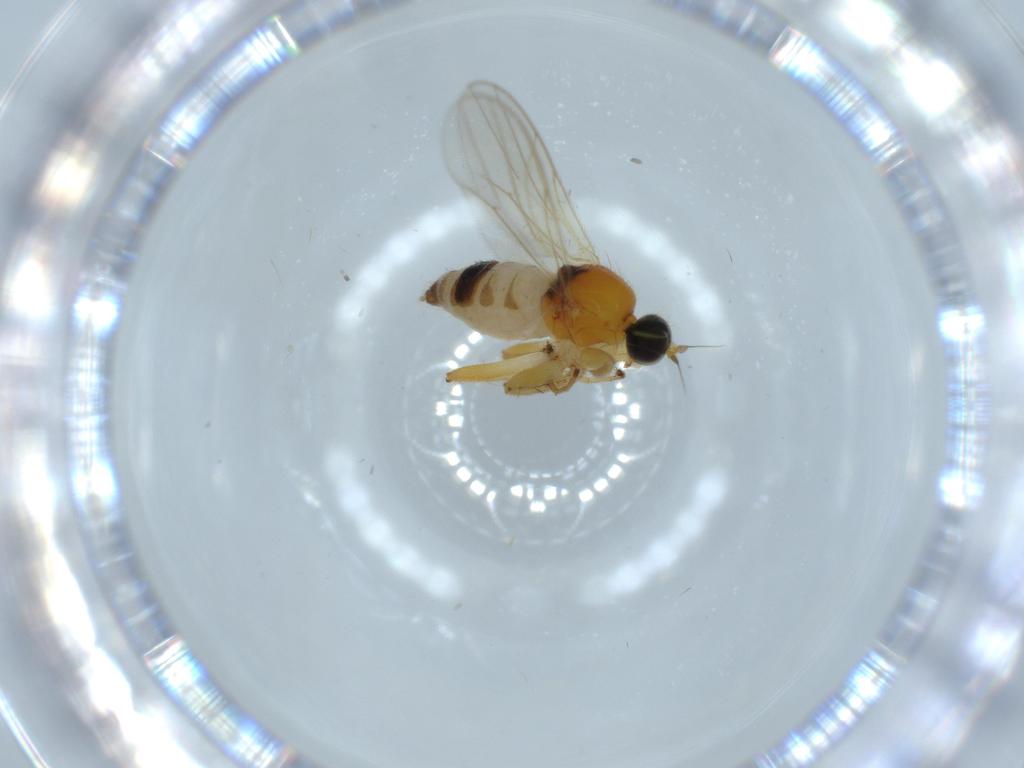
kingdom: Animalia
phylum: Arthropoda
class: Insecta
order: Diptera
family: Hybotidae
